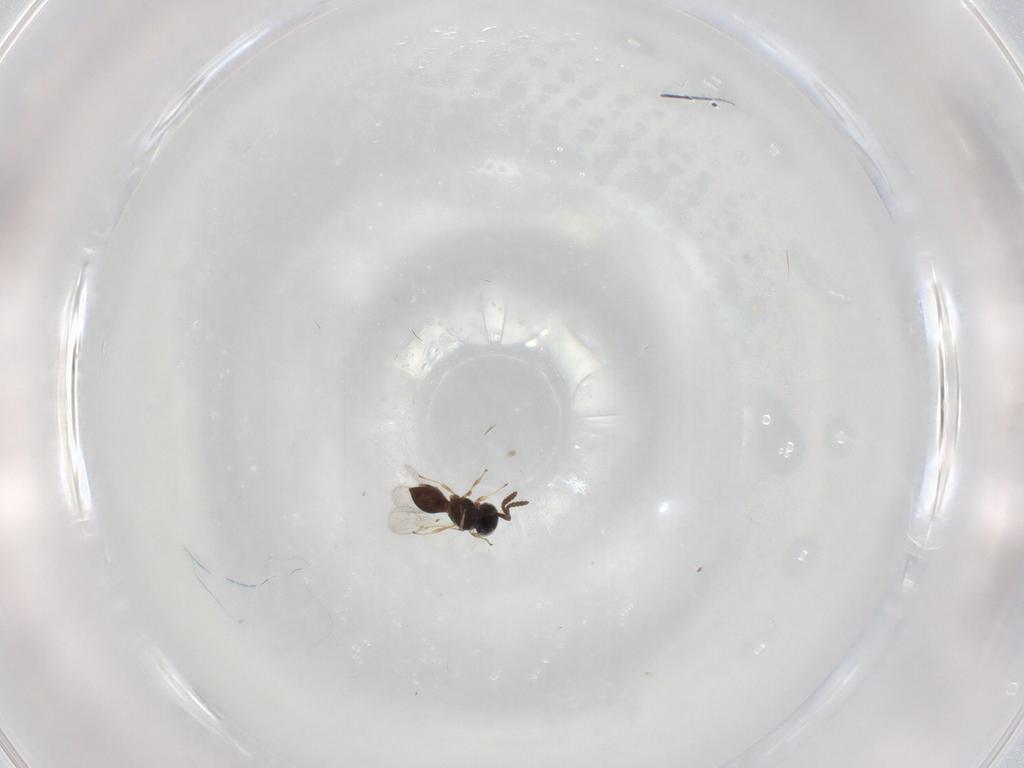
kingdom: Animalia
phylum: Arthropoda
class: Insecta
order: Hymenoptera
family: Scelionidae
